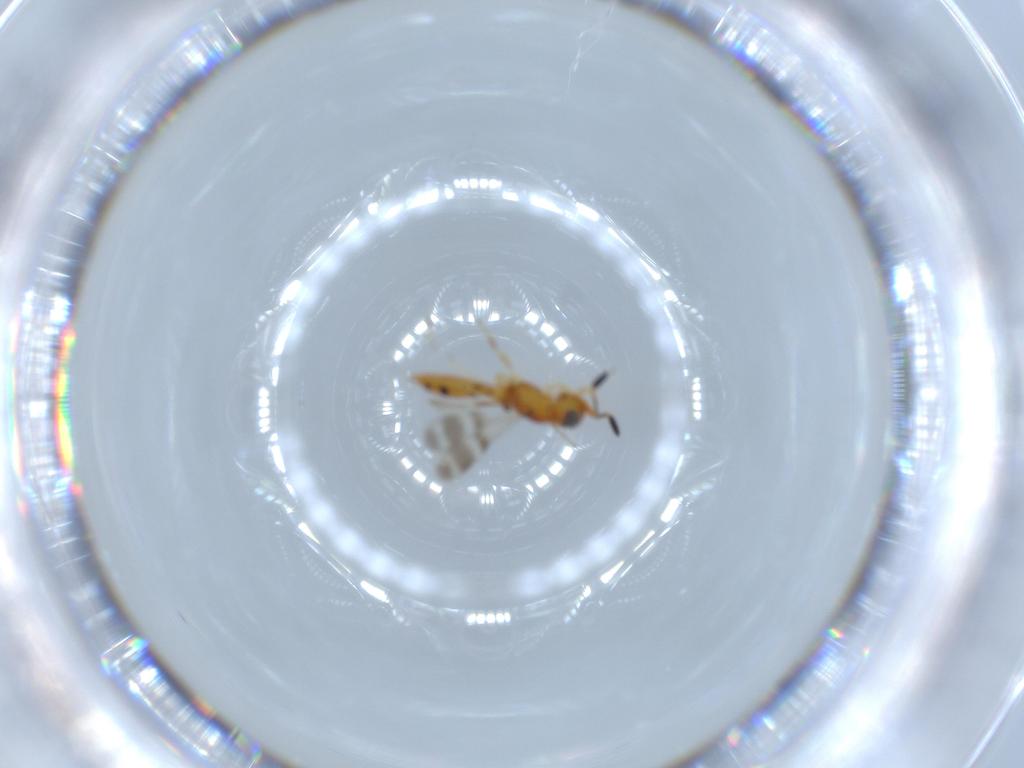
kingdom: Animalia
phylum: Arthropoda
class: Insecta
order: Hymenoptera
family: Scelionidae
